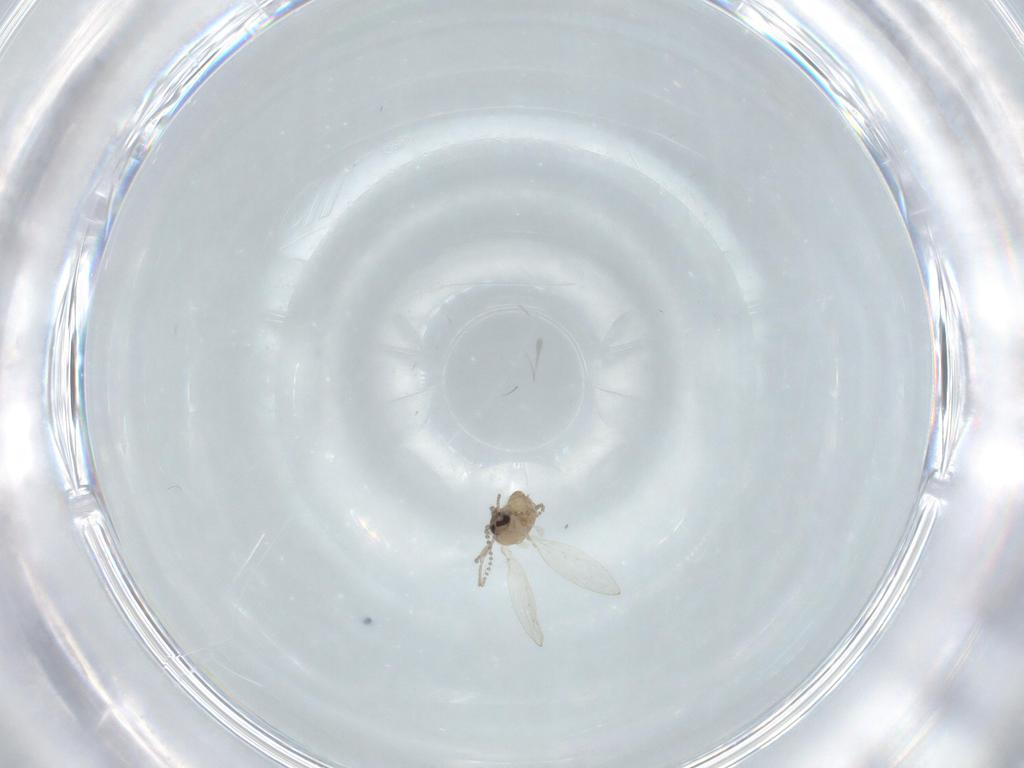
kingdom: Animalia
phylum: Arthropoda
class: Insecta
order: Diptera
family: Psychodidae
